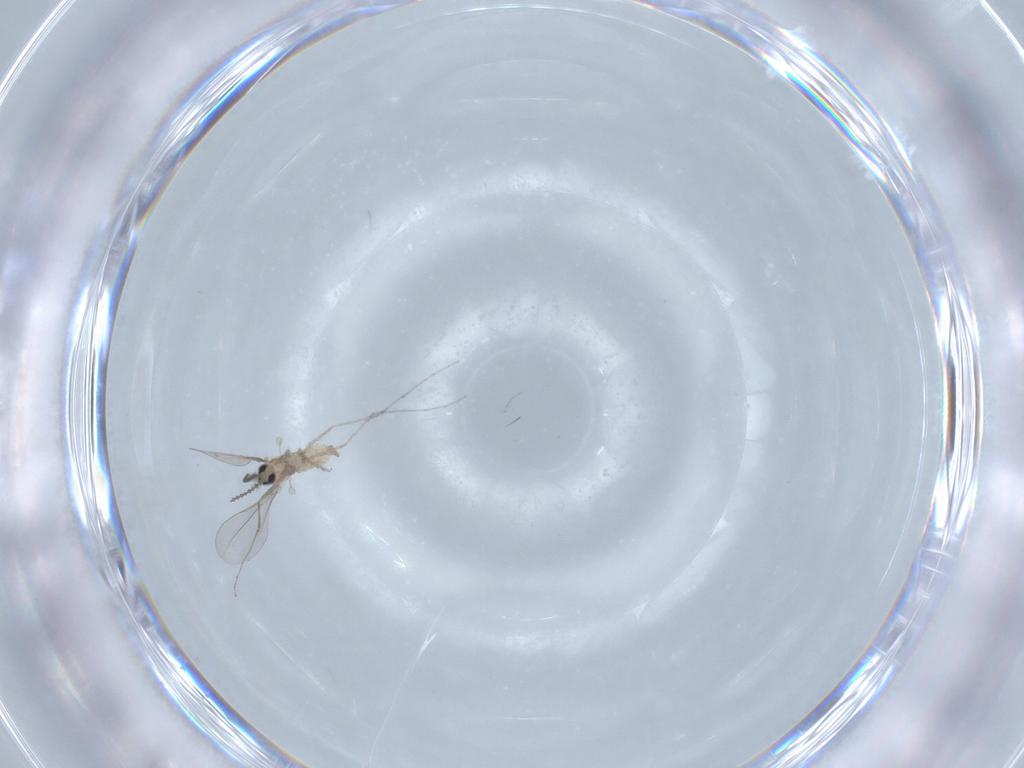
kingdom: Animalia
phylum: Arthropoda
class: Insecta
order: Diptera
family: Cecidomyiidae
